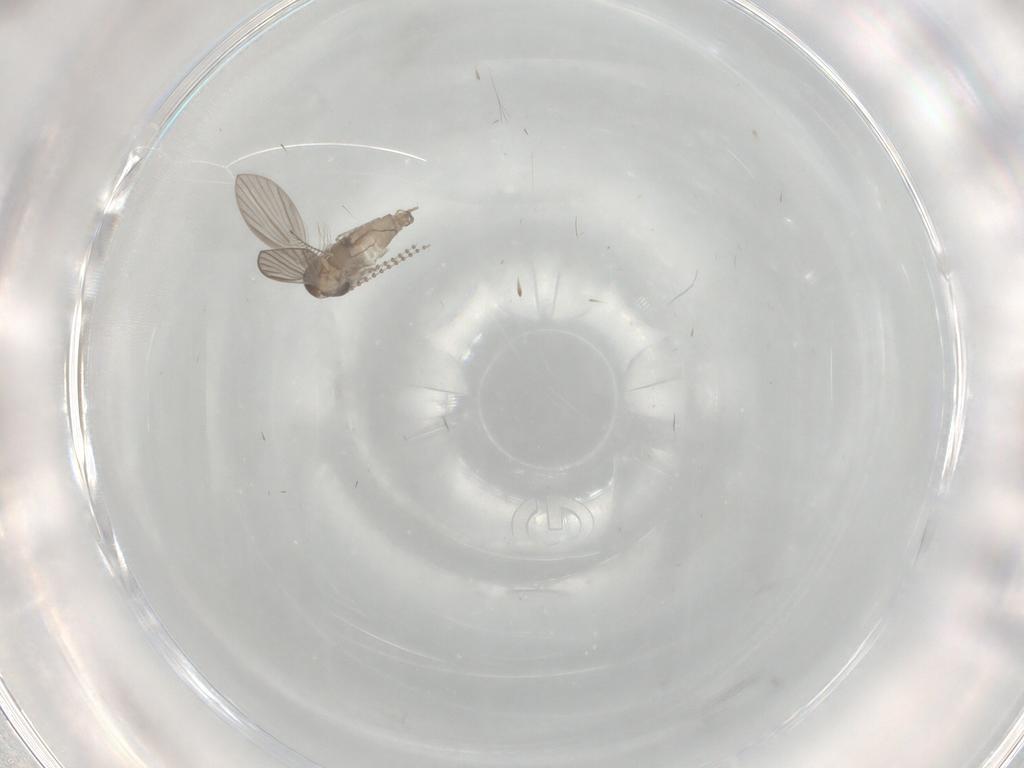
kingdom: Animalia
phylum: Arthropoda
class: Insecta
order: Diptera
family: Psychodidae
